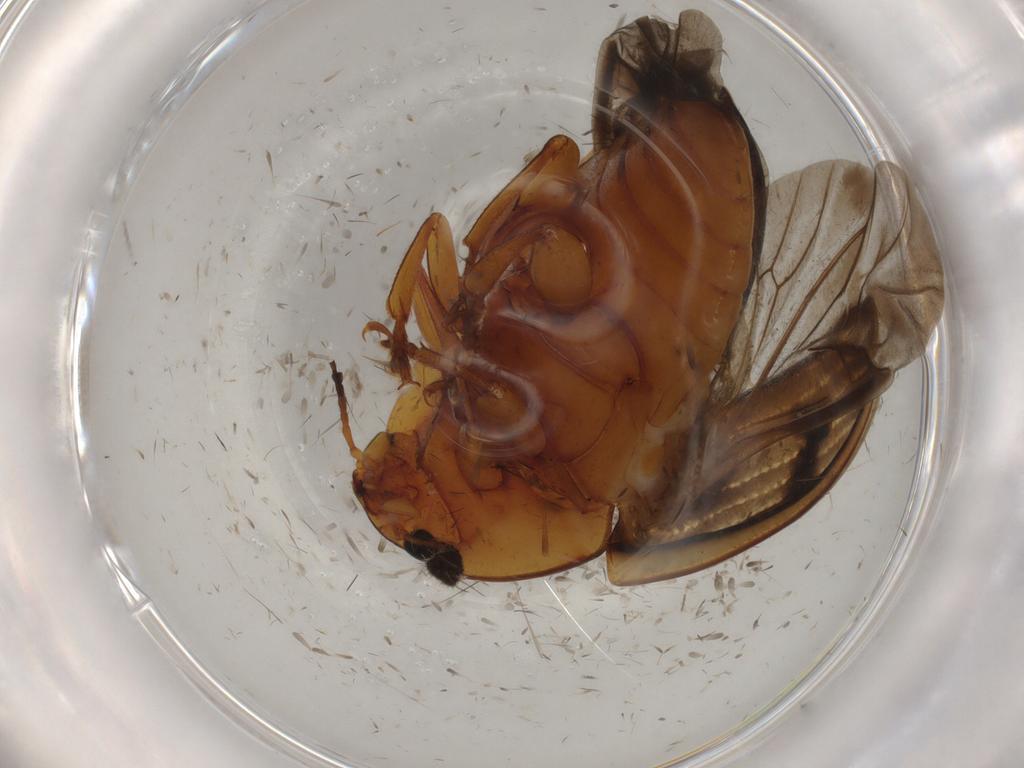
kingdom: Animalia
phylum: Arthropoda
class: Insecta
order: Coleoptera
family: Erotylidae
